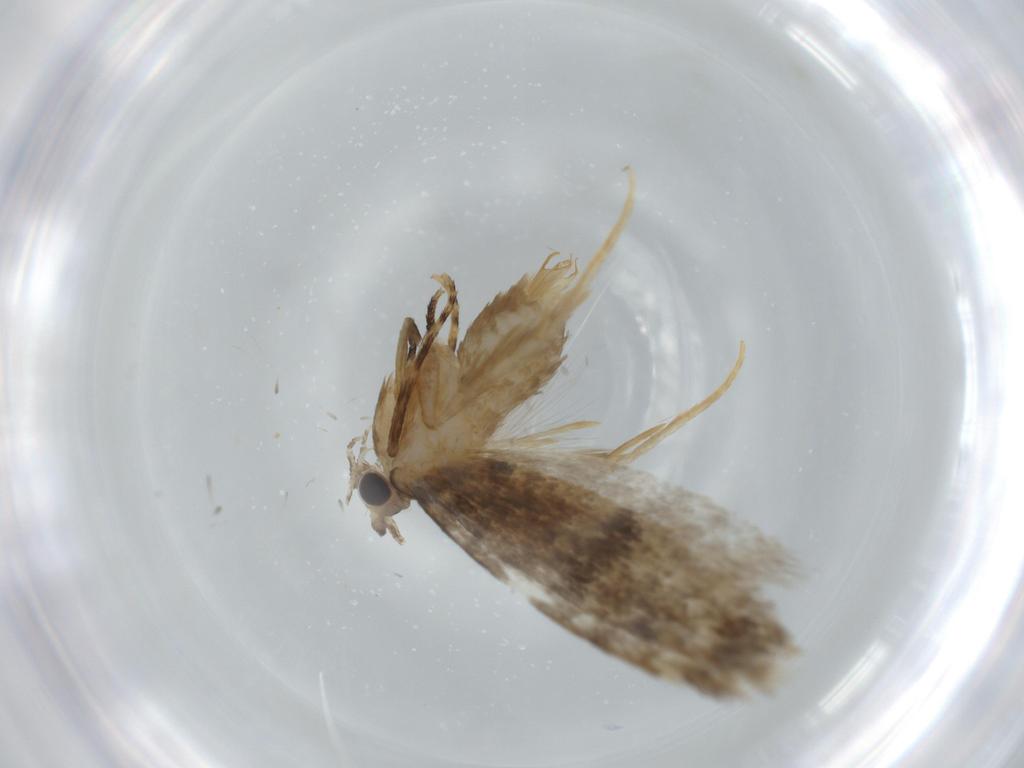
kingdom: Animalia
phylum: Arthropoda
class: Insecta
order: Lepidoptera
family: Tineidae
